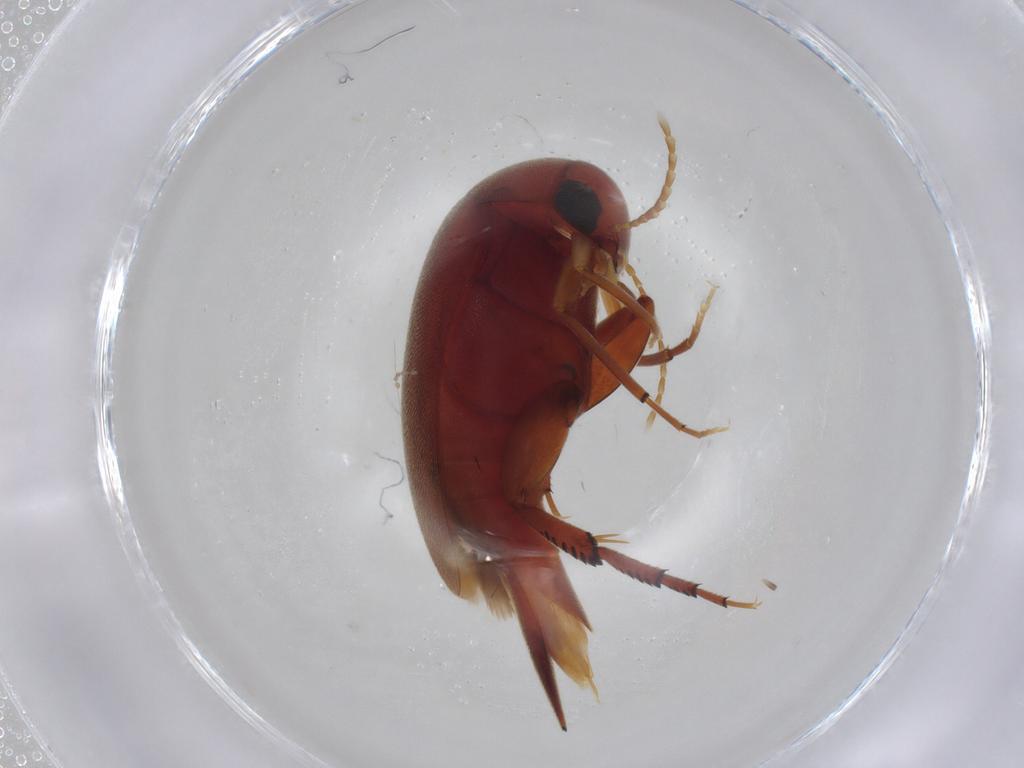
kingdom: Animalia
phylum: Arthropoda
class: Insecta
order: Coleoptera
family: Mordellidae
